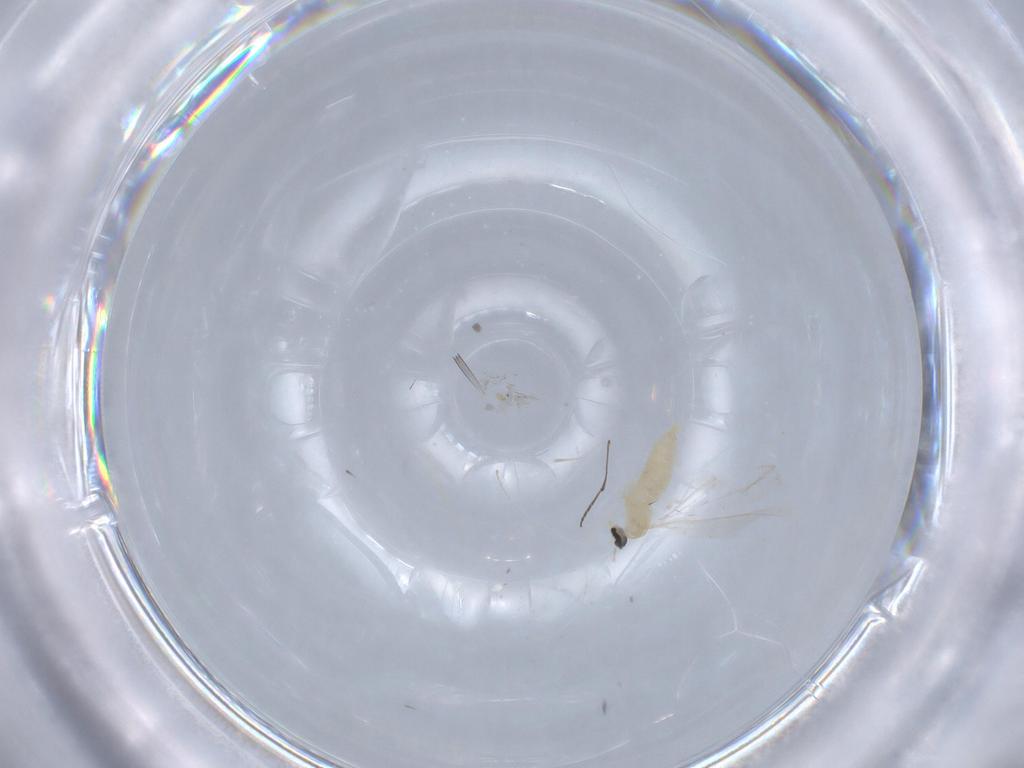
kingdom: Animalia
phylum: Arthropoda
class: Insecta
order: Diptera
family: Cecidomyiidae
